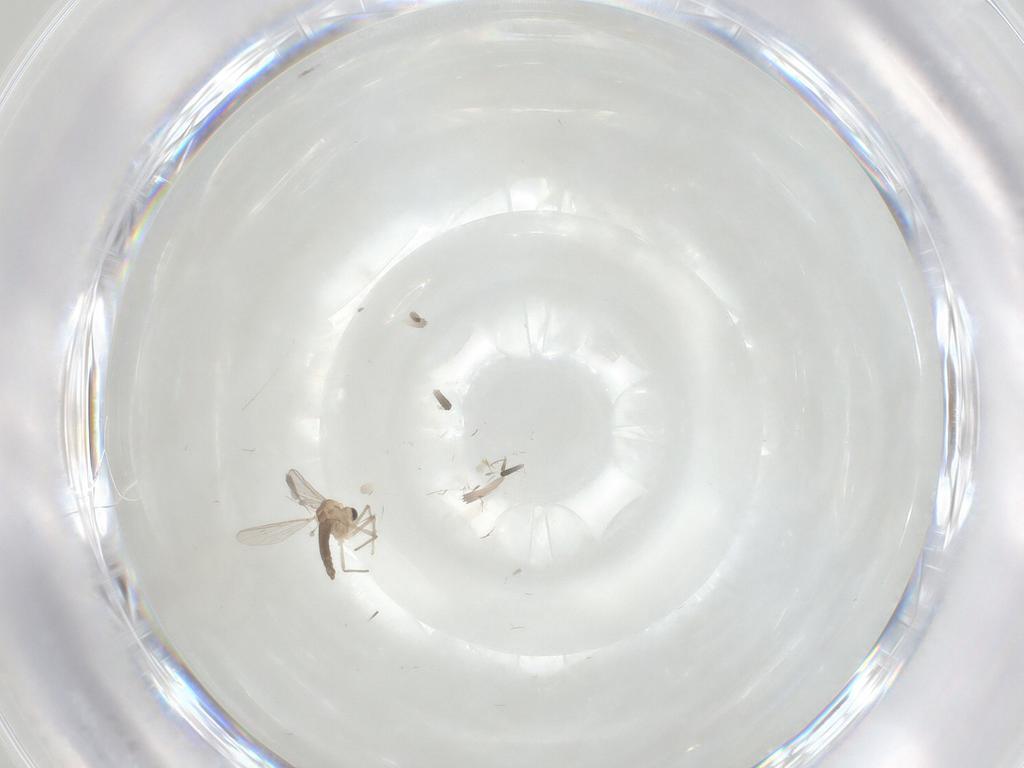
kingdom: Animalia
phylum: Arthropoda
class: Insecta
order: Diptera
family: Chironomidae
